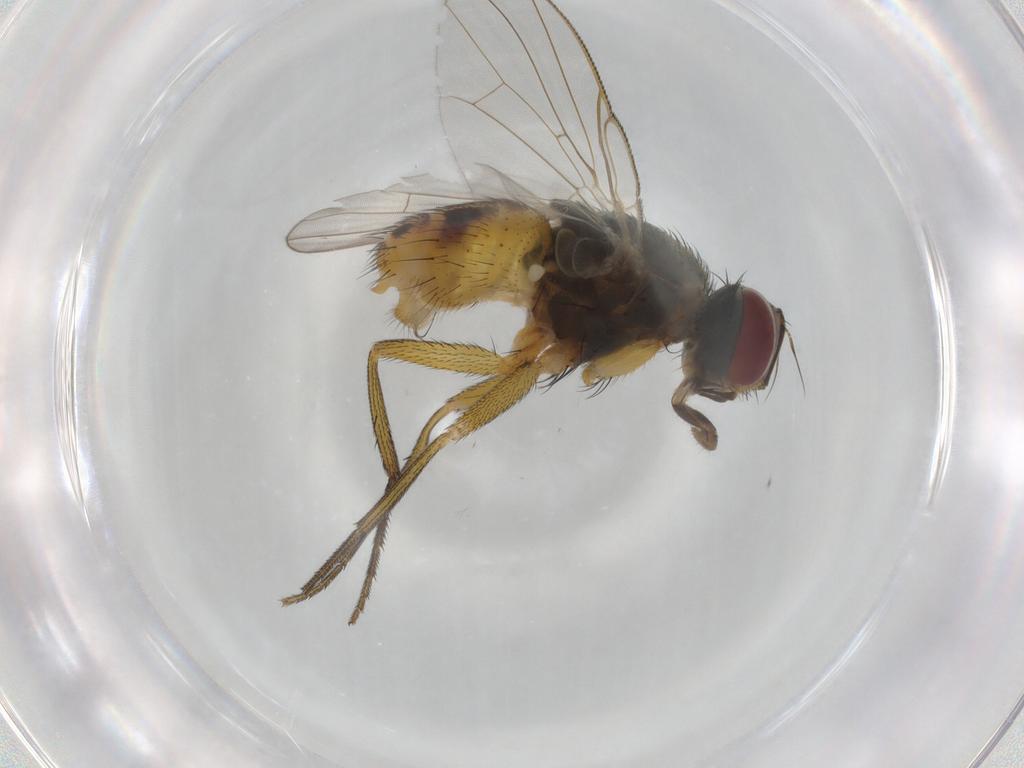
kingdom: Animalia
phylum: Arthropoda
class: Insecta
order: Diptera
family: Muscidae
